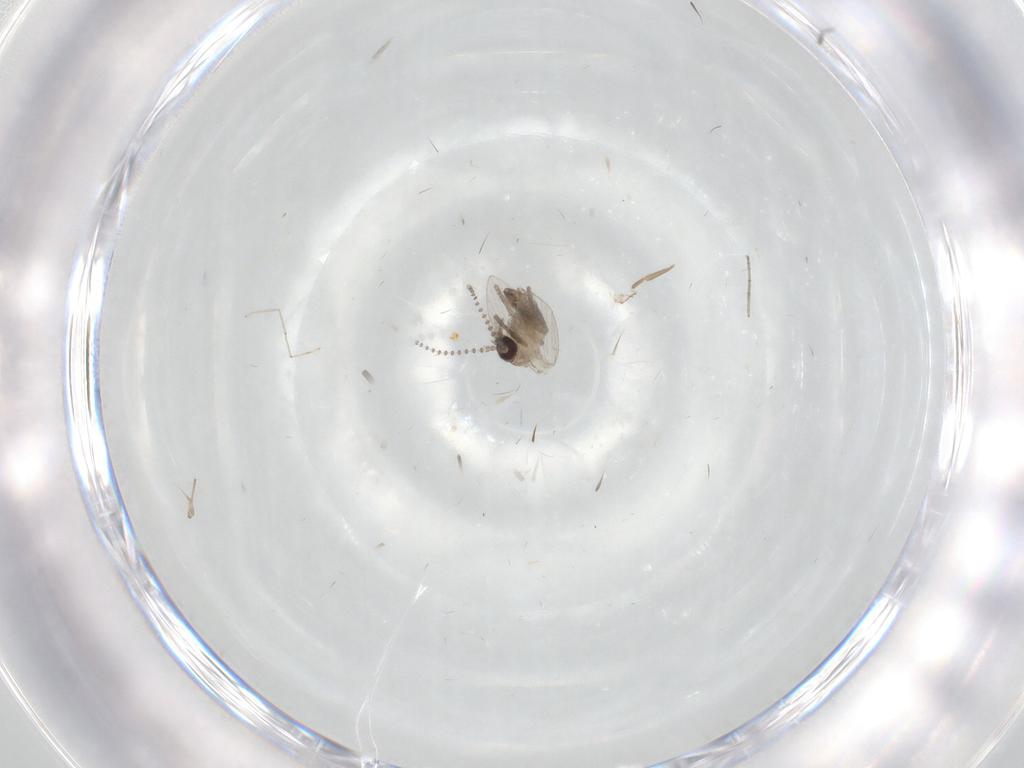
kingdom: Animalia
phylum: Arthropoda
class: Insecta
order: Diptera
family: Psychodidae
